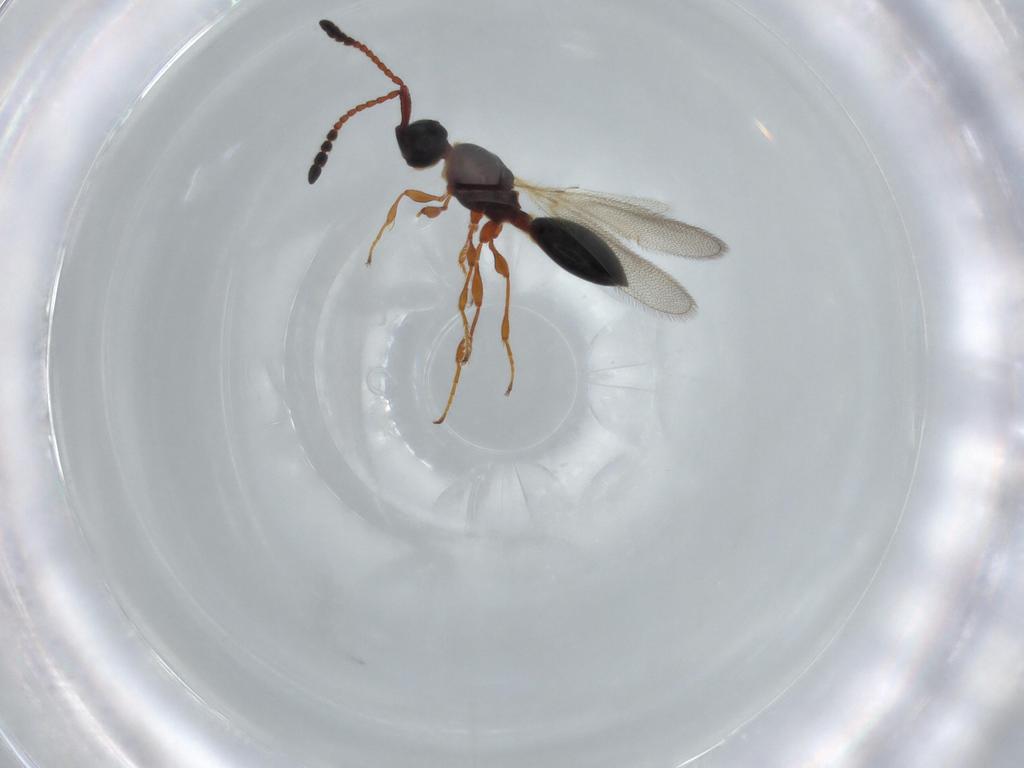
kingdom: Animalia
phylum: Arthropoda
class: Insecta
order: Hymenoptera
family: Diapriidae
